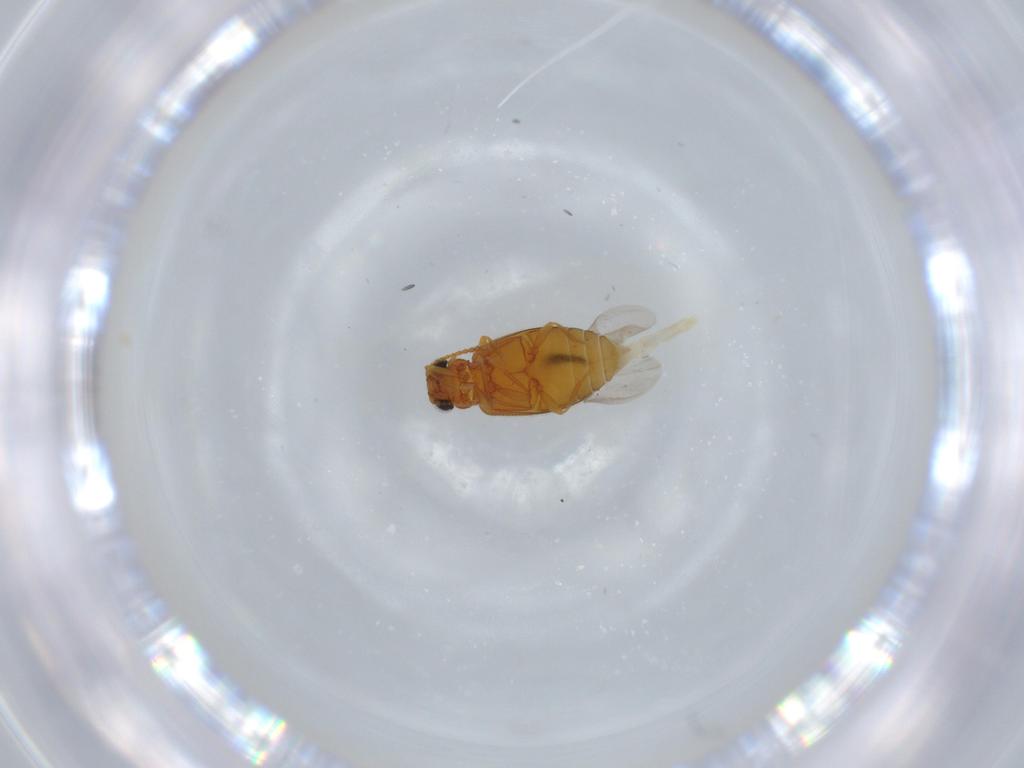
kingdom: Animalia
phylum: Arthropoda
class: Insecta
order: Coleoptera
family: Aderidae
